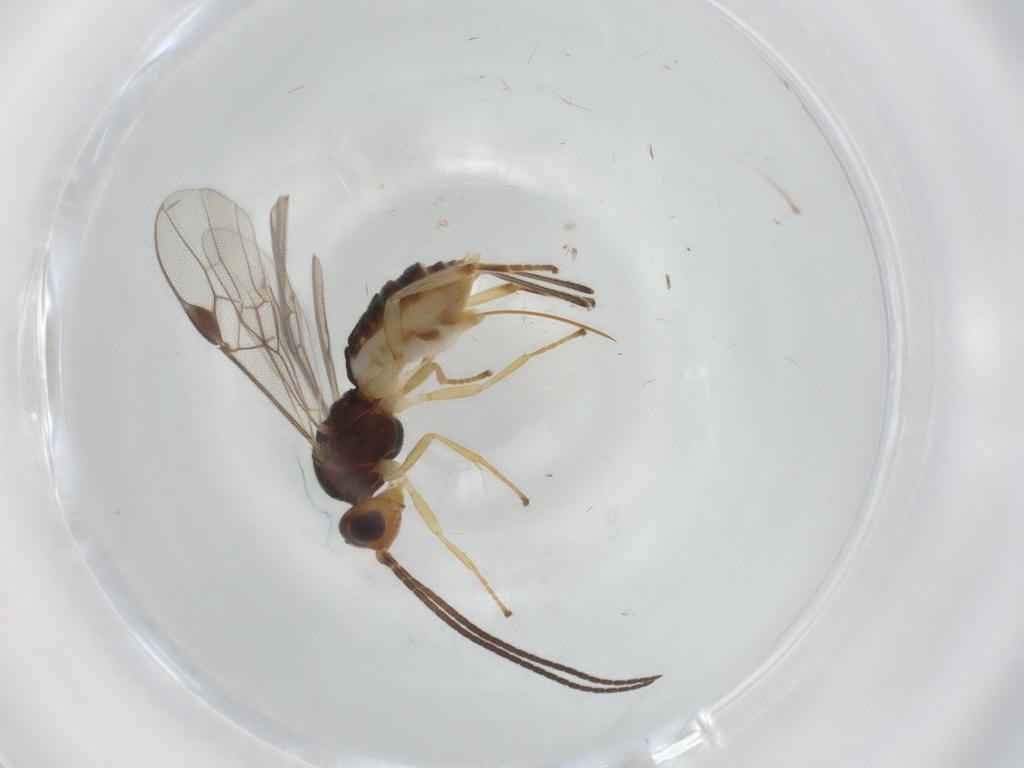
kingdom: Animalia
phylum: Arthropoda
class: Insecta
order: Hymenoptera
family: Braconidae
